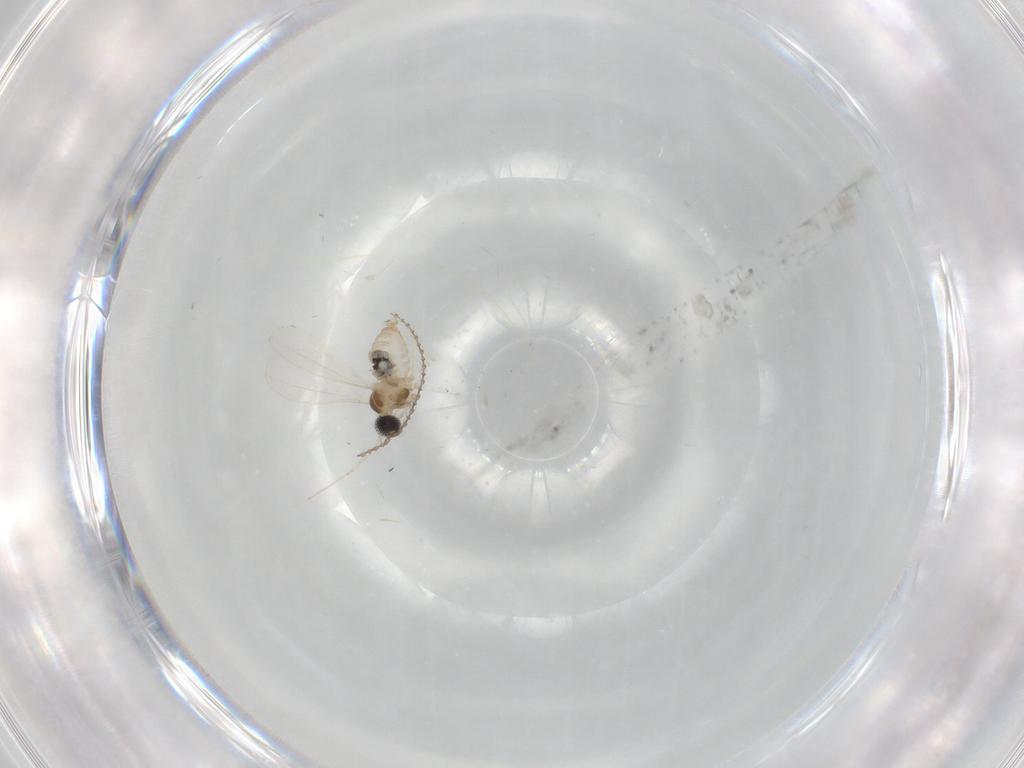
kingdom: Animalia
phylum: Arthropoda
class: Insecta
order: Diptera
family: Cecidomyiidae
